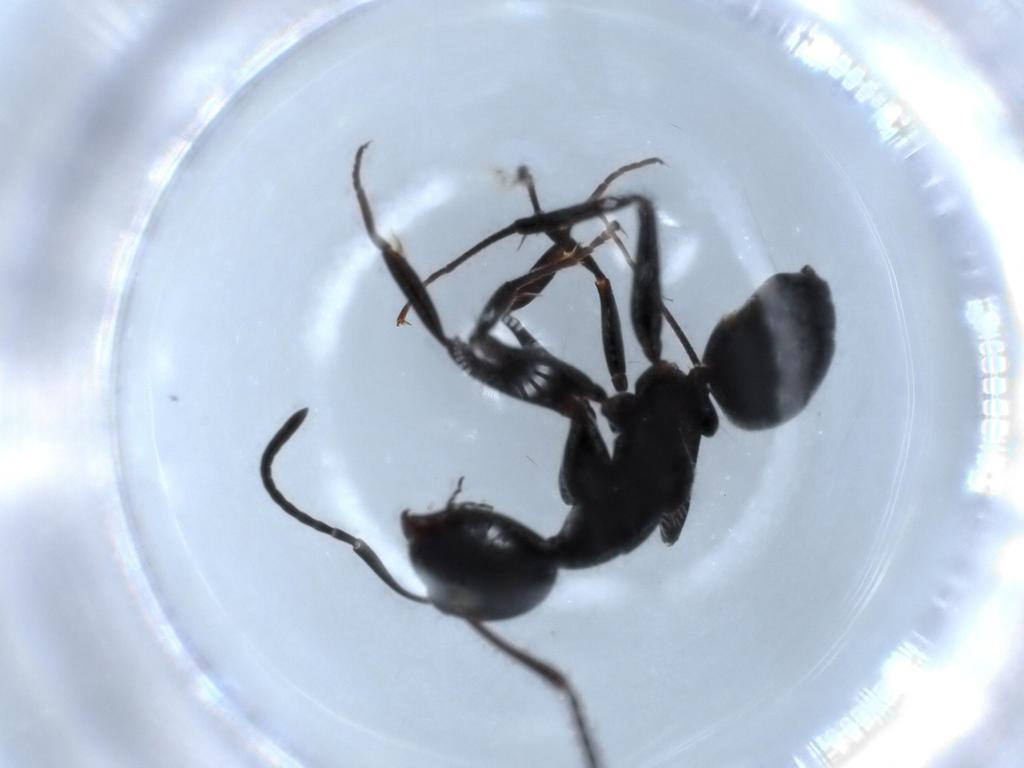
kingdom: Animalia
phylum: Arthropoda
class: Insecta
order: Hymenoptera
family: Formicidae
